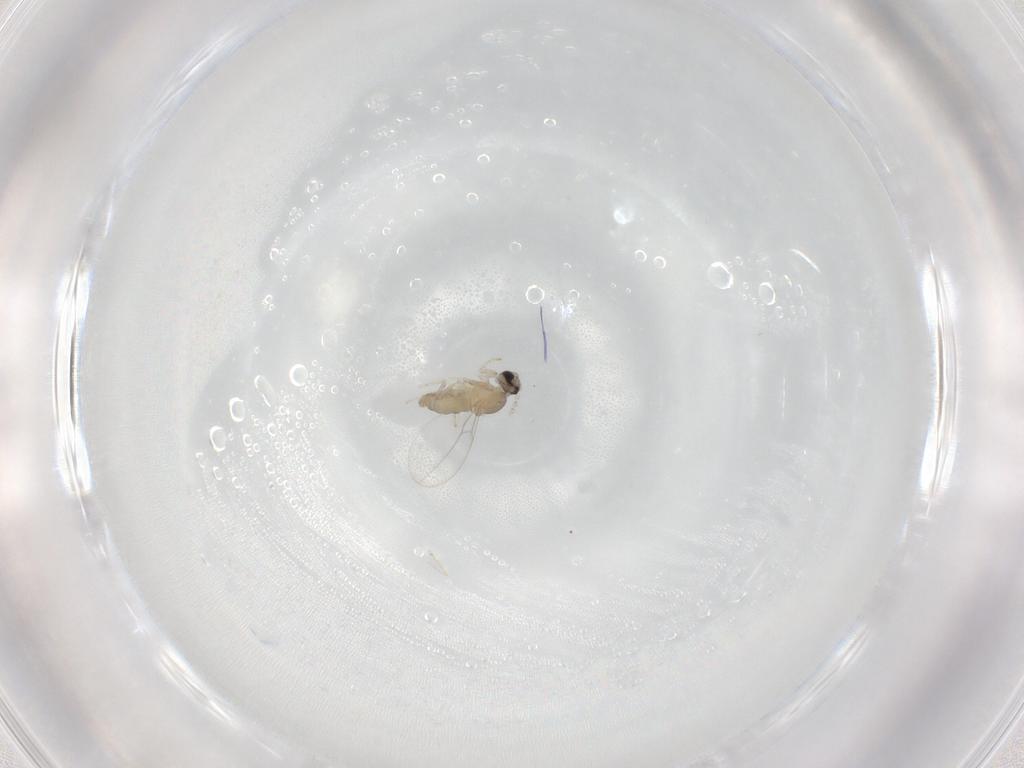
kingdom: Animalia
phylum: Arthropoda
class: Insecta
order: Diptera
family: Cecidomyiidae
